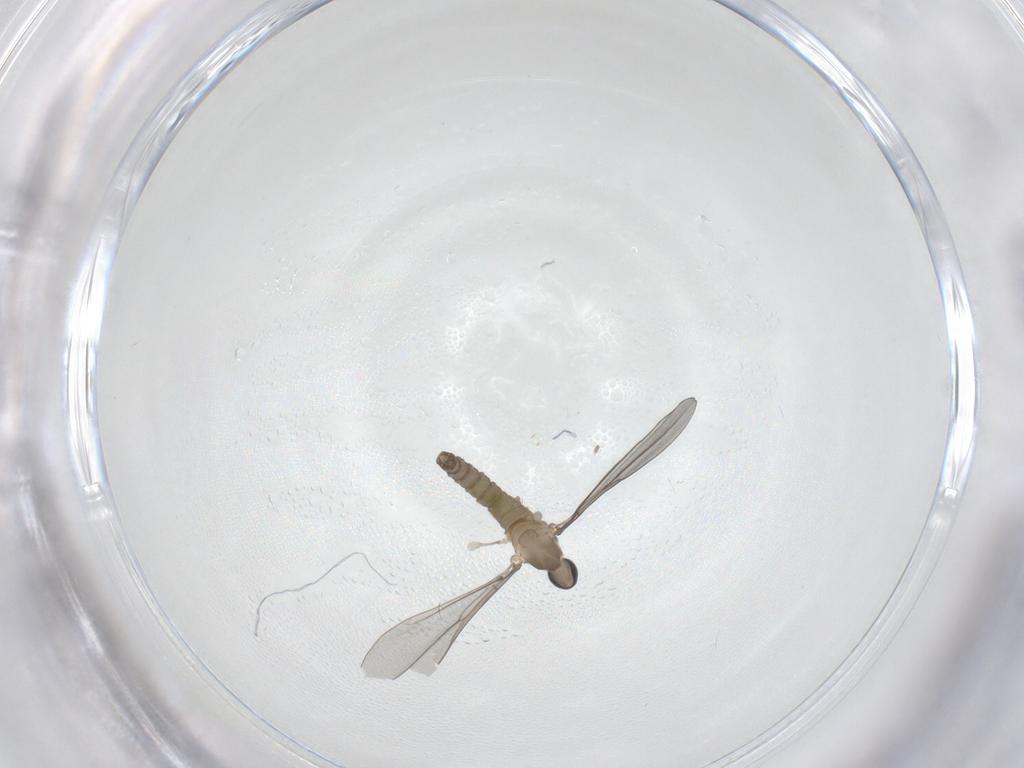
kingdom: Animalia
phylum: Arthropoda
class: Insecta
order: Diptera
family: Cecidomyiidae
